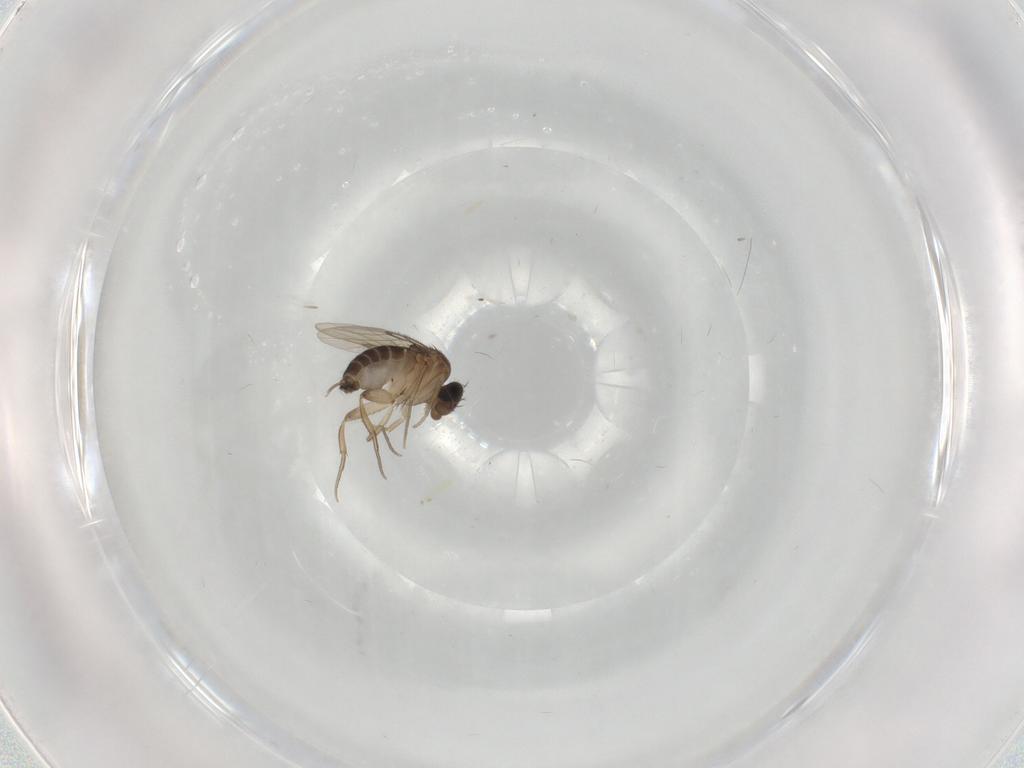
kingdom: Animalia
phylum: Arthropoda
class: Insecta
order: Diptera
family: Phoridae
